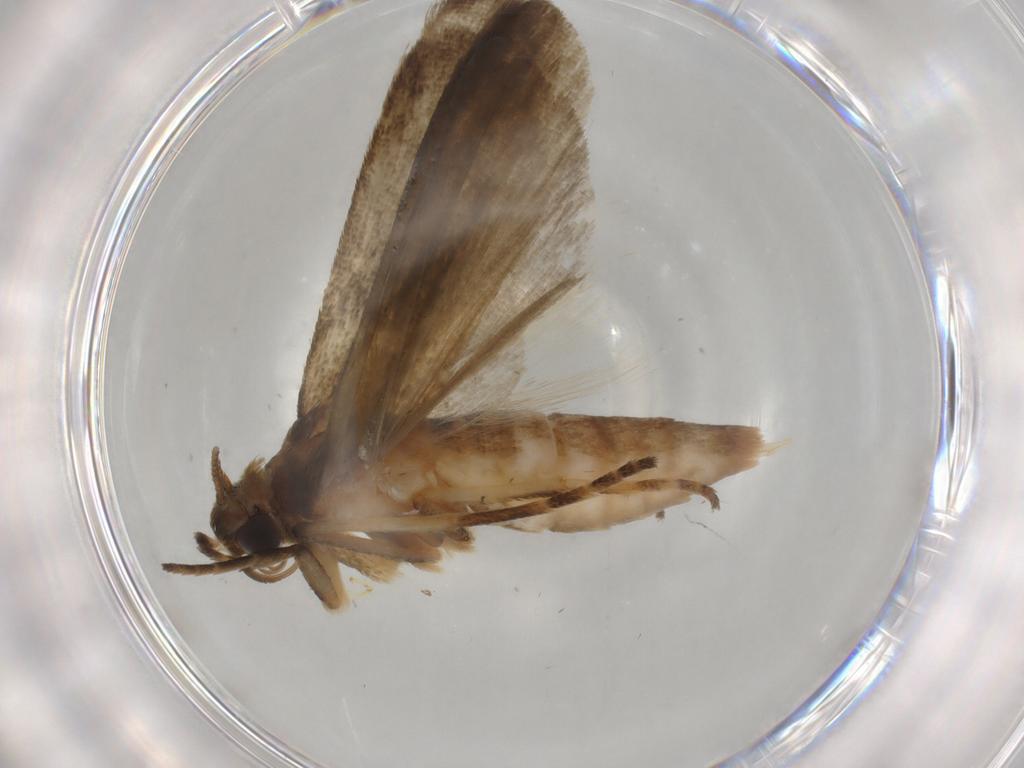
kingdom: Animalia
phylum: Arthropoda
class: Insecta
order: Lepidoptera
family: Noctuidae
